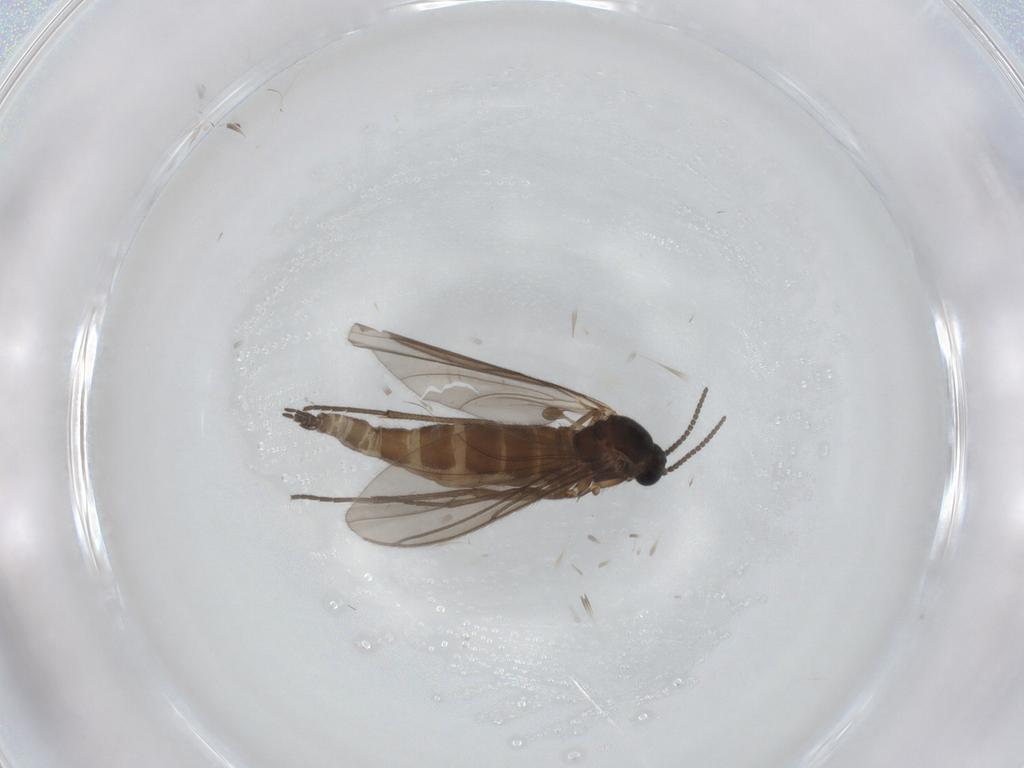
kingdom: Animalia
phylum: Arthropoda
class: Insecta
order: Diptera
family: Sciaridae
